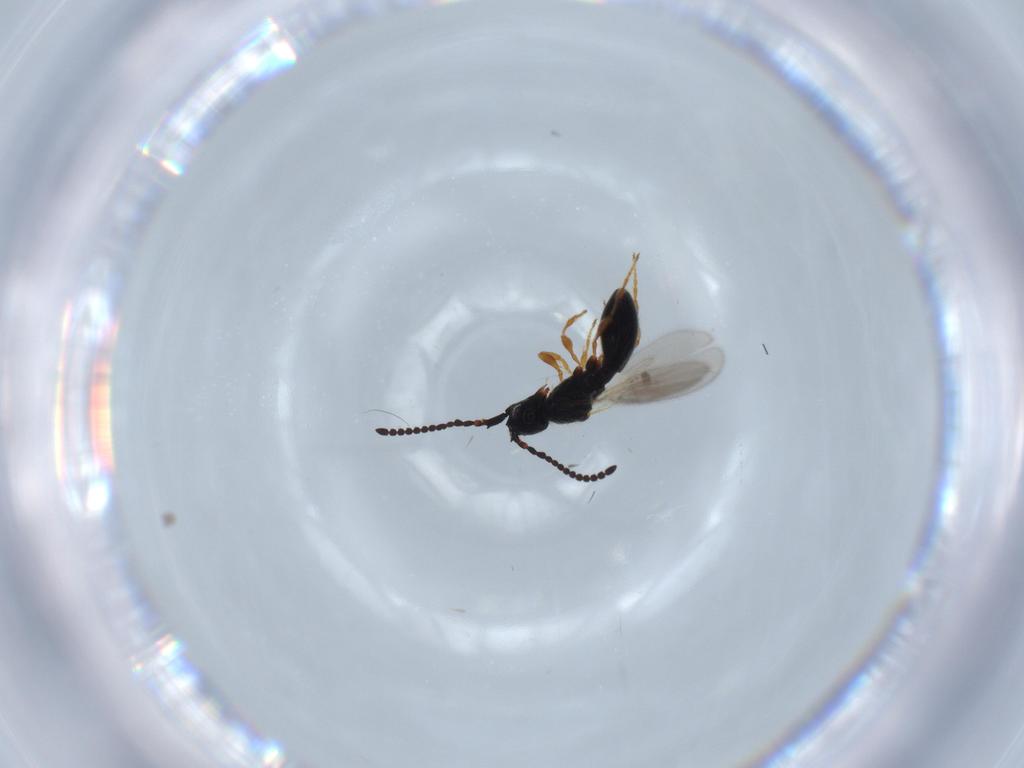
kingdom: Animalia
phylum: Arthropoda
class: Insecta
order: Hymenoptera
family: Diapriidae
